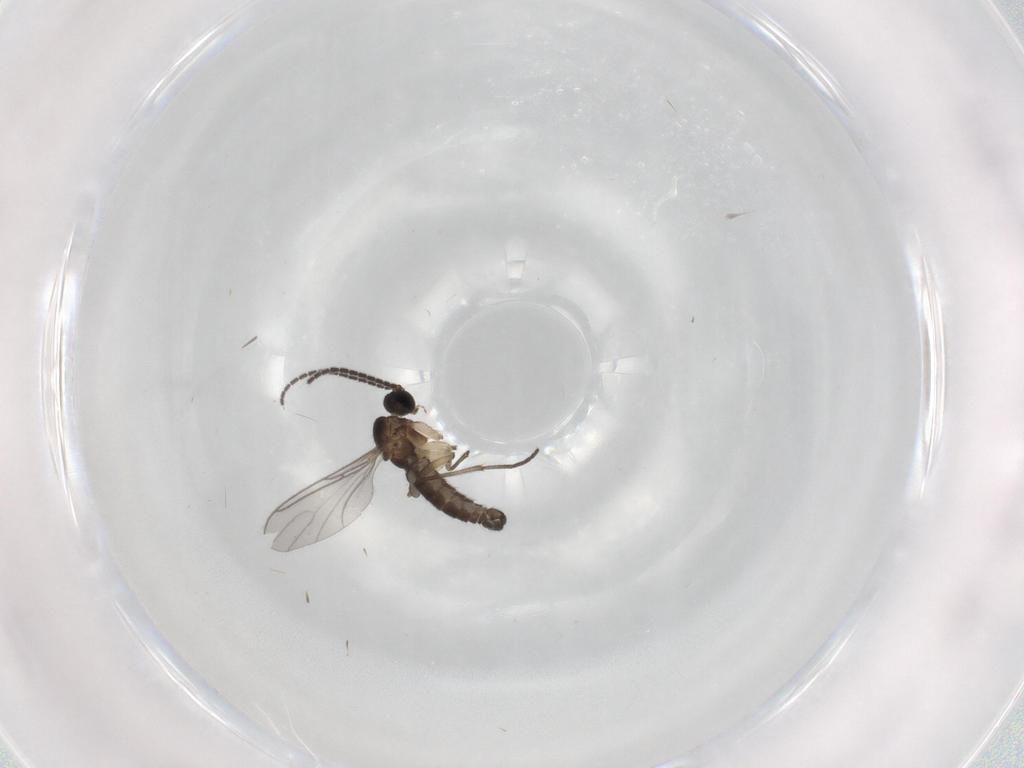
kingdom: Animalia
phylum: Arthropoda
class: Insecta
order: Diptera
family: Sciaridae
